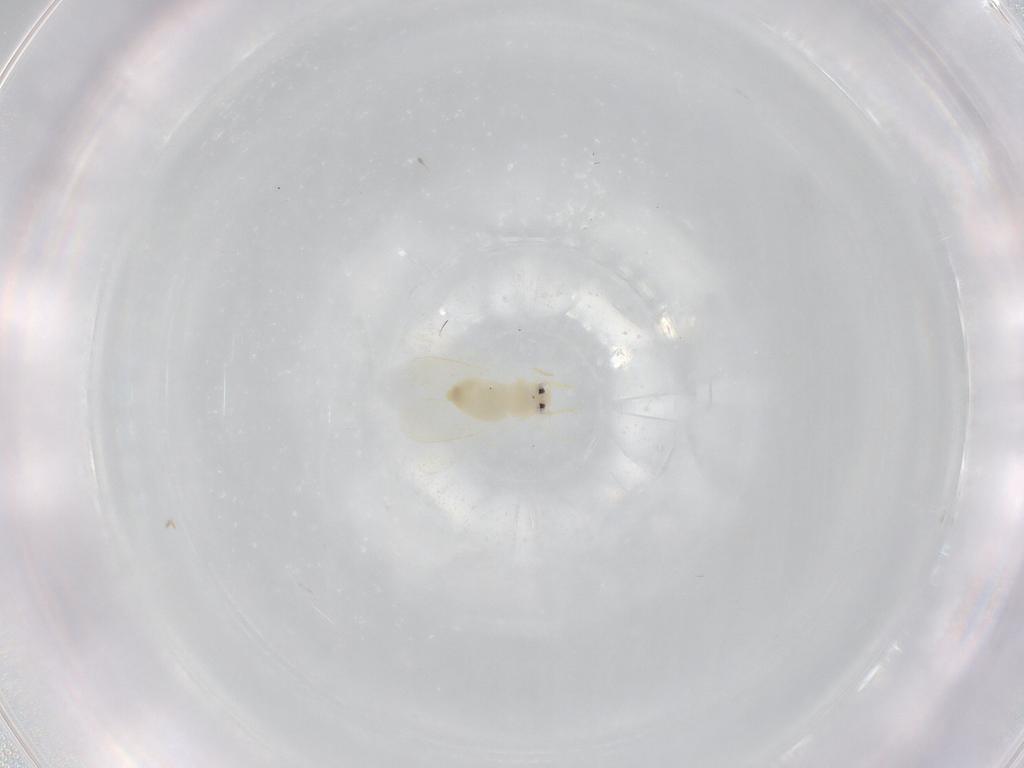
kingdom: Animalia
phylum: Arthropoda
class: Insecta
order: Hemiptera
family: Aleyrodidae
